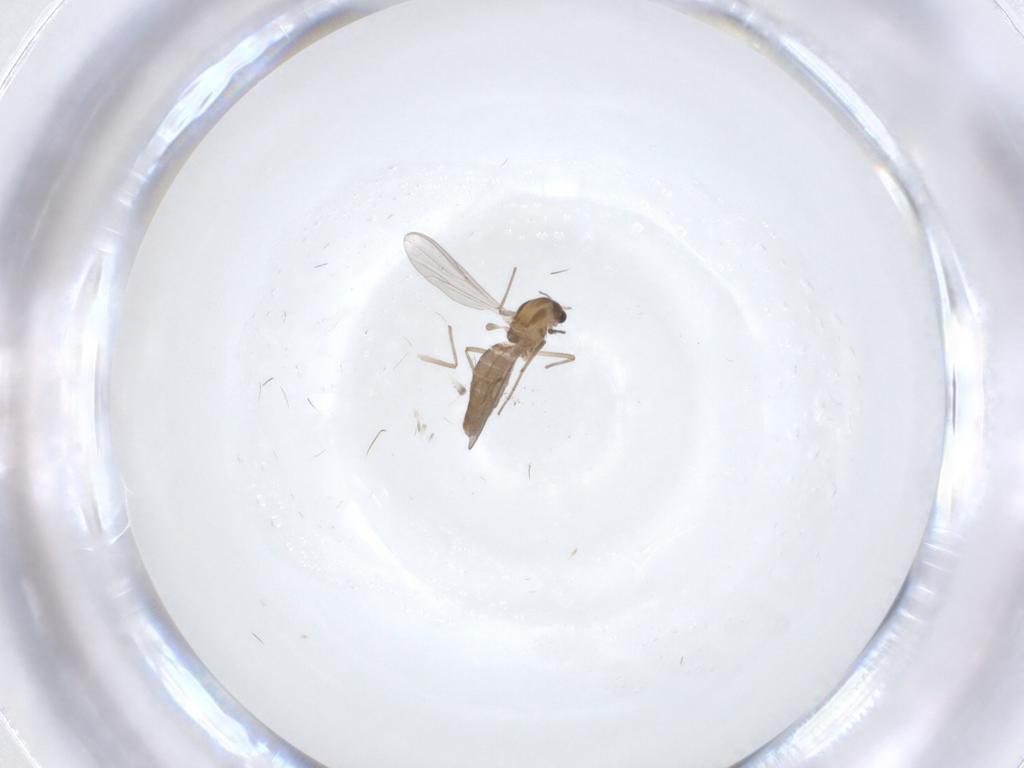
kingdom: Animalia
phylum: Arthropoda
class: Insecta
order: Diptera
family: Chironomidae
